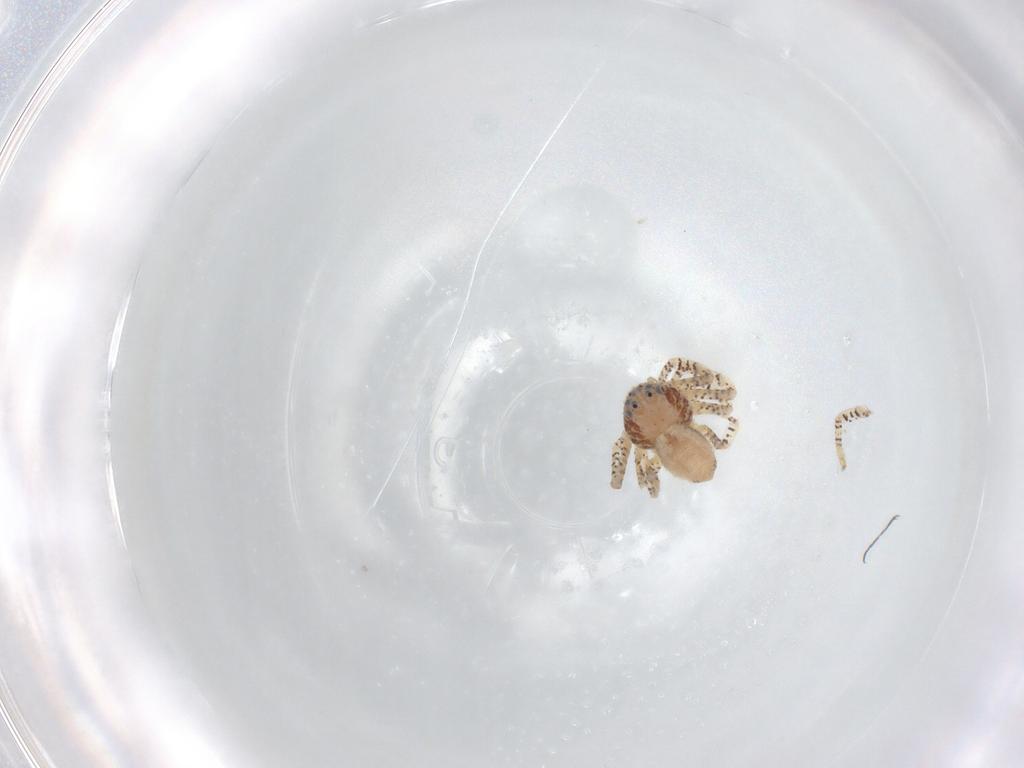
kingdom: Animalia
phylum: Arthropoda
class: Arachnida
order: Araneae
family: Philodromidae
